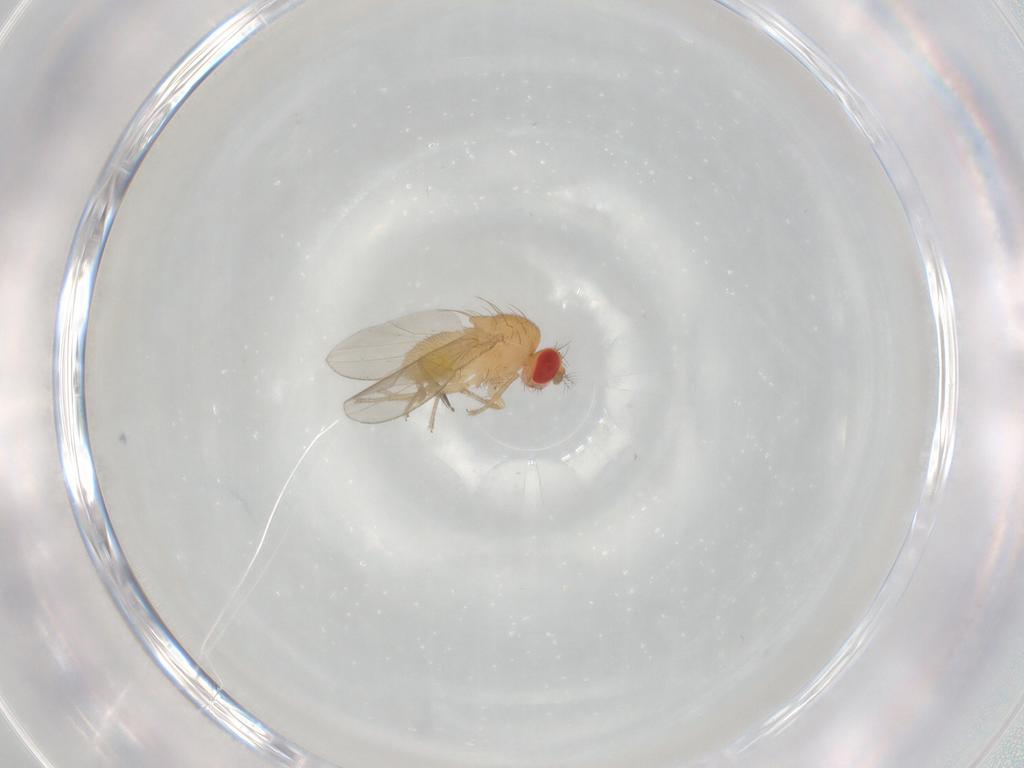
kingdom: Animalia
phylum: Arthropoda
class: Insecta
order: Diptera
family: Drosophilidae
